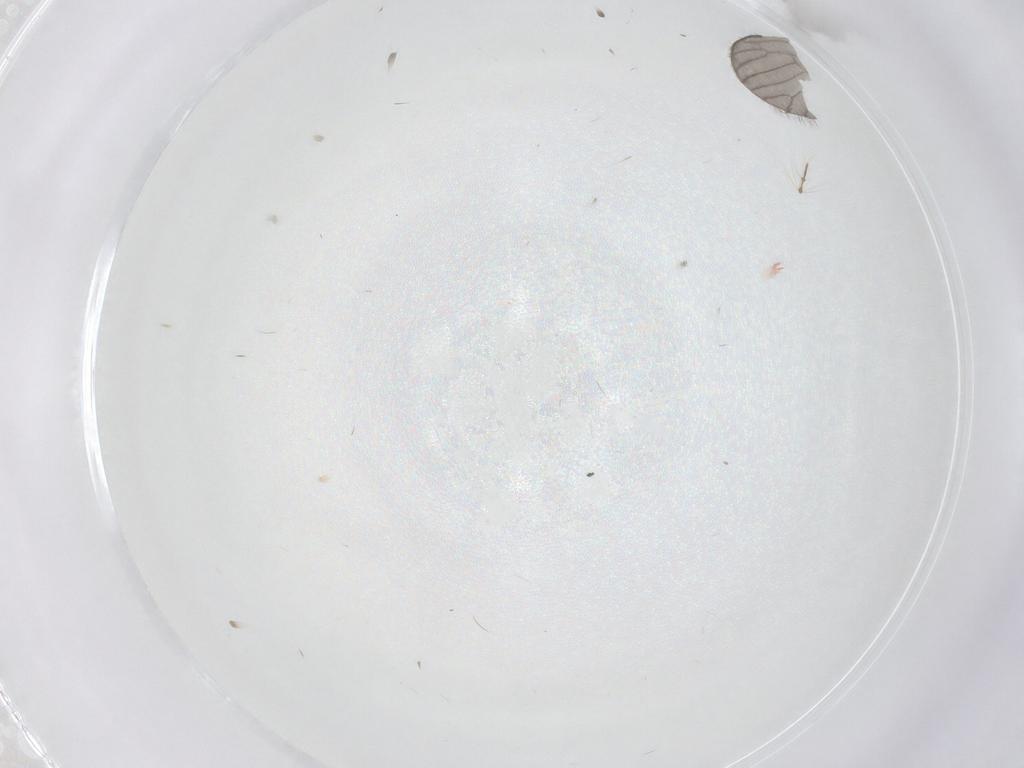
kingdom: Animalia
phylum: Arthropoda
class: Insecta
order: Diptera
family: Chironomidae
